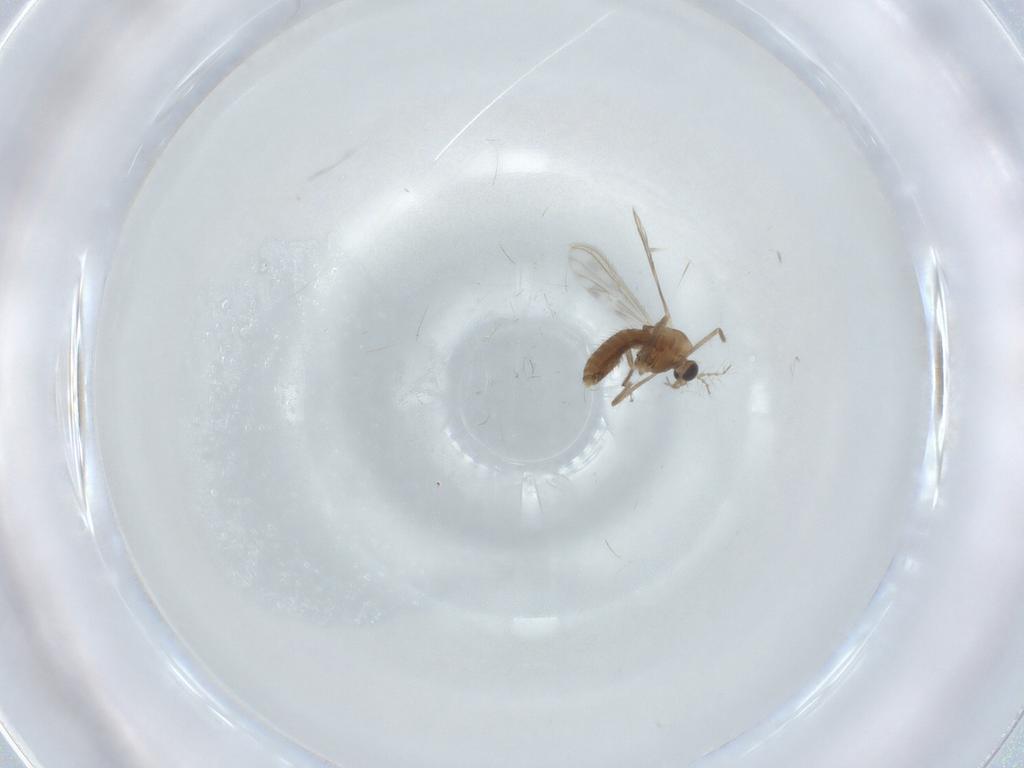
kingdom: Animalia
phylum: Arthropoda
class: Insecta
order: Diptera
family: Chironomidae
